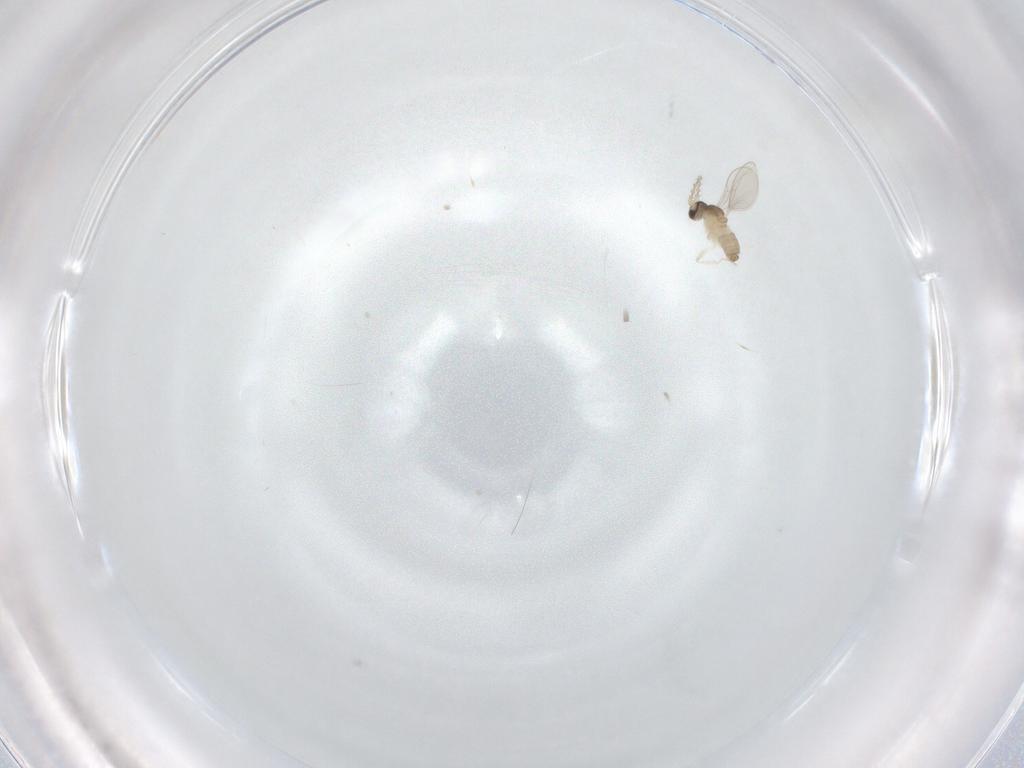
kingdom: Animalia
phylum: Arthropoda
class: Insecta
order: Diptera
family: Cecidomyiidae
